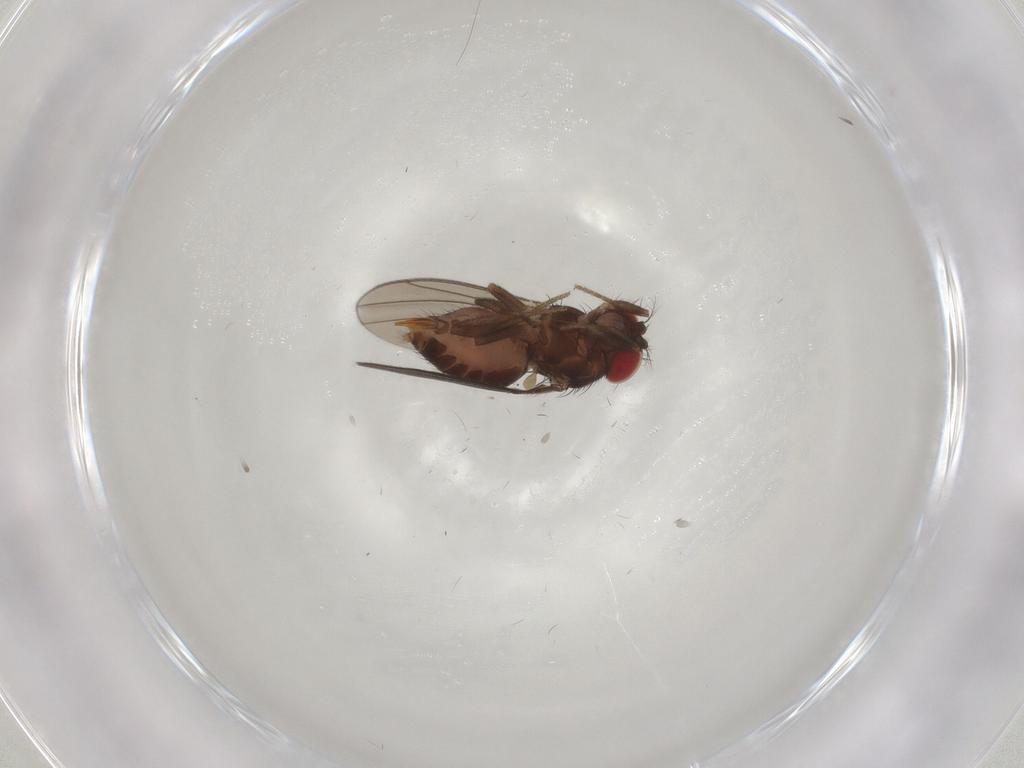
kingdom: Animalia
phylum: Arthropoda
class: Insecta
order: Diptera
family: Drosophilidae
